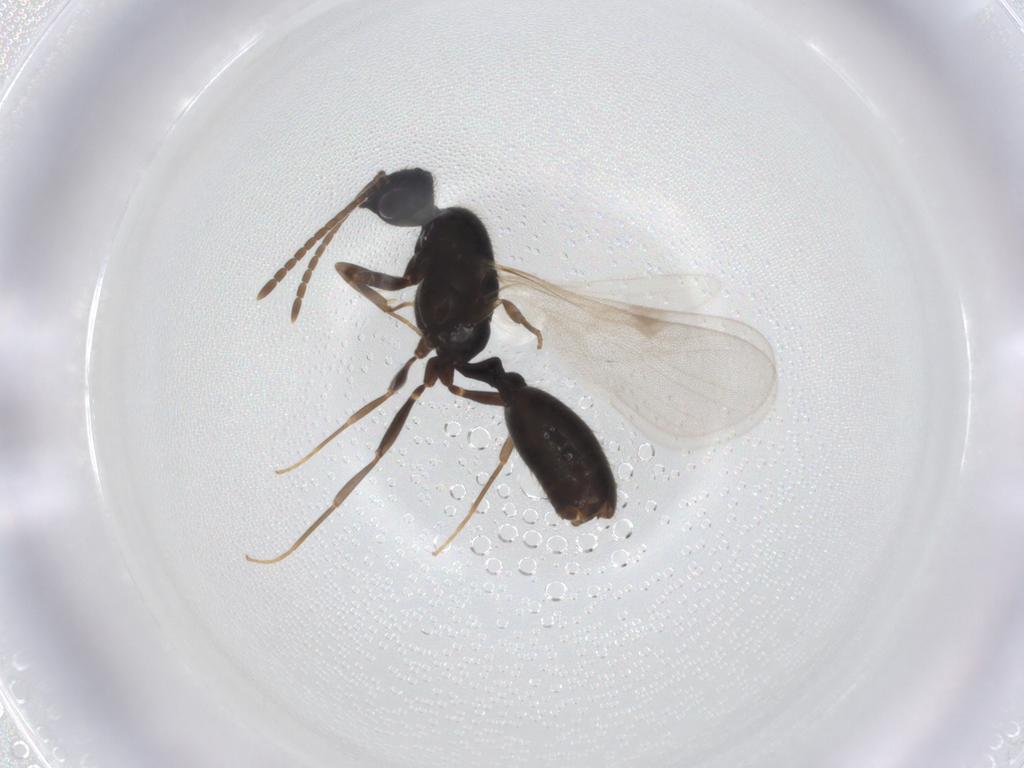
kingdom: Animalia
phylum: Arthropoda
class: Insecta
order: Hymenoptera
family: Formicidae
